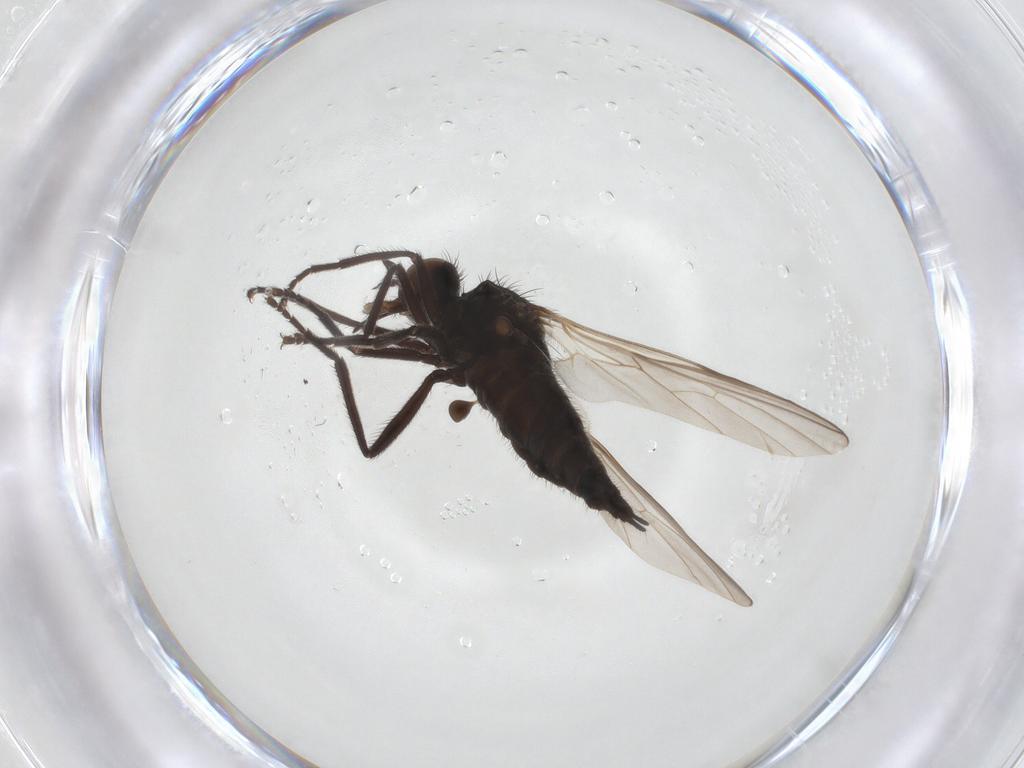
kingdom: Animalia
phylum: Arthropoda
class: Insecta
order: Diptera
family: Empididae
